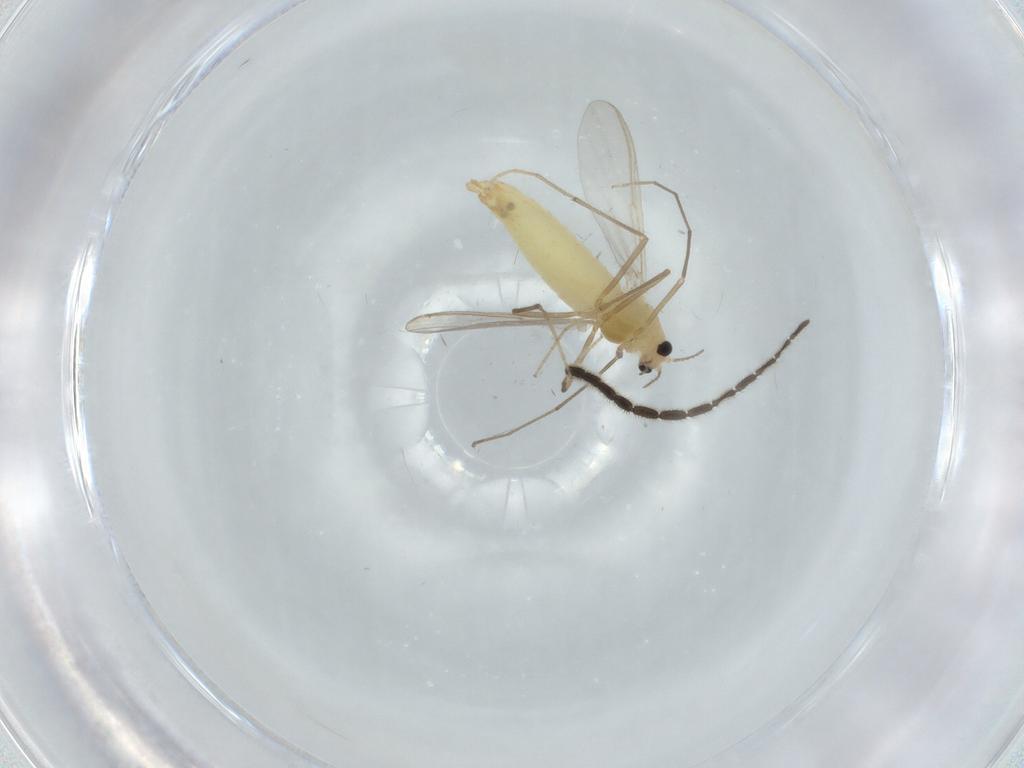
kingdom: Animalia
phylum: Arthropoda
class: Insecta
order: Diptera
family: Chironomidae
